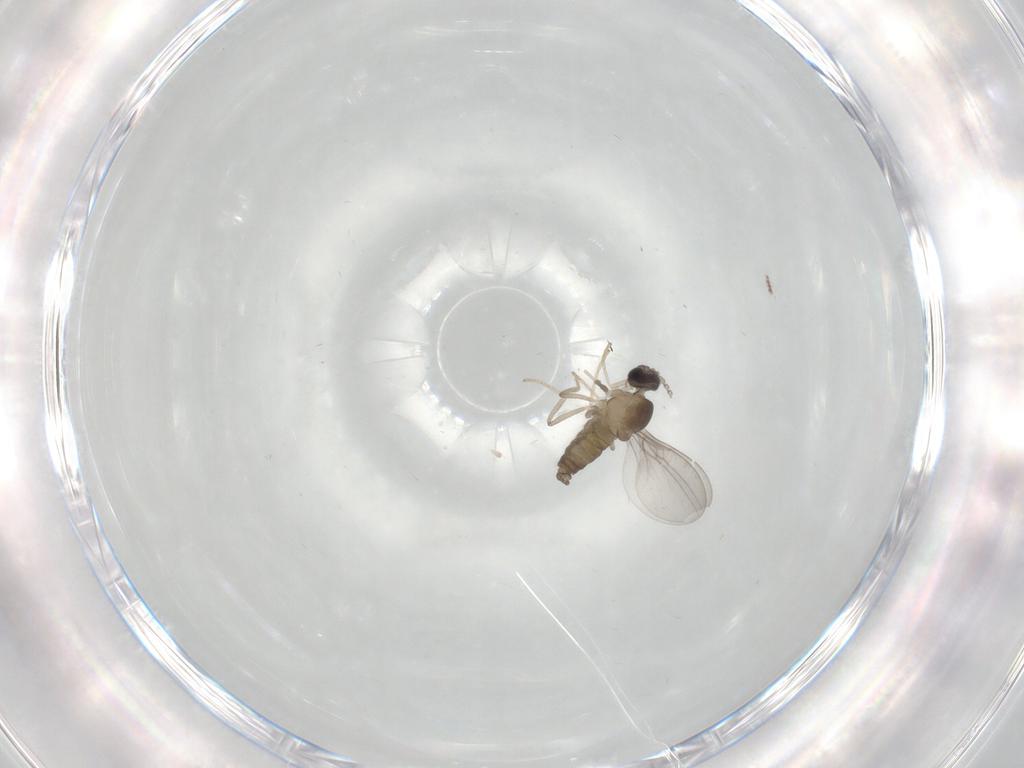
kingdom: Animalia
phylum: Arthropoda
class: Insecta
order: Diptera
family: Cecidomyiidae
